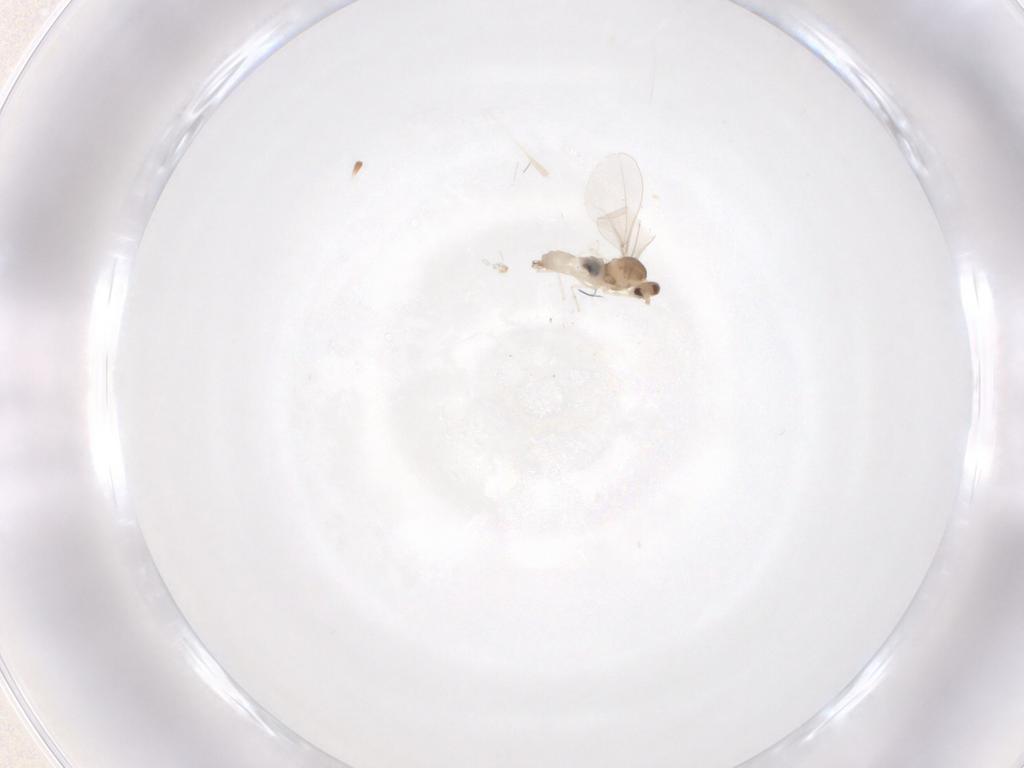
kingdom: Animalia
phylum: Arthropoda
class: Insecta
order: Diptera
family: Cecidomyiidae
